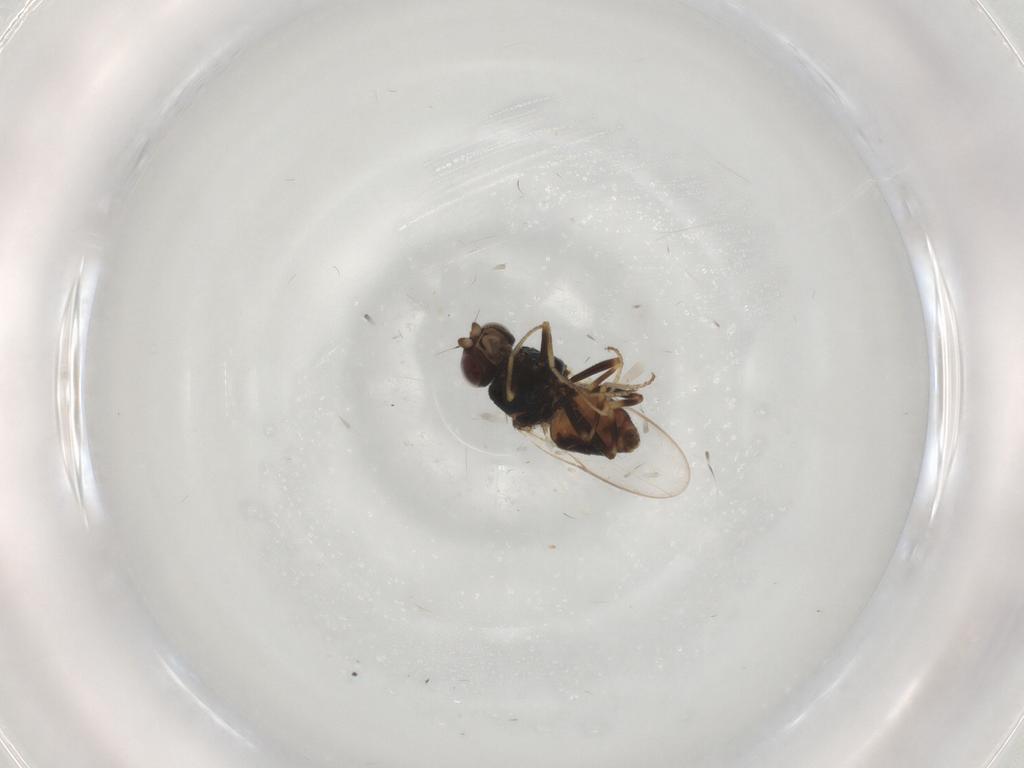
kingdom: Animalia
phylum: Arthropoda
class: Insecta
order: Diptera
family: Chloropidae
